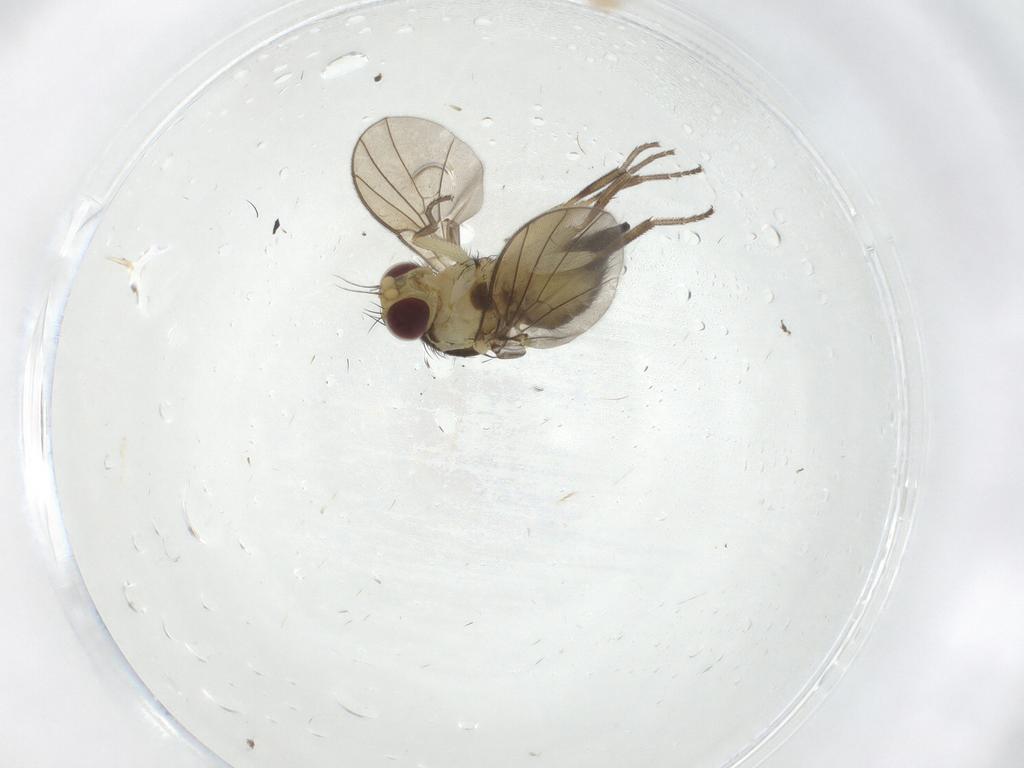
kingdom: Animalia
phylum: Arthropoda
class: Insecta
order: Diptera
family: Agromyzidae
